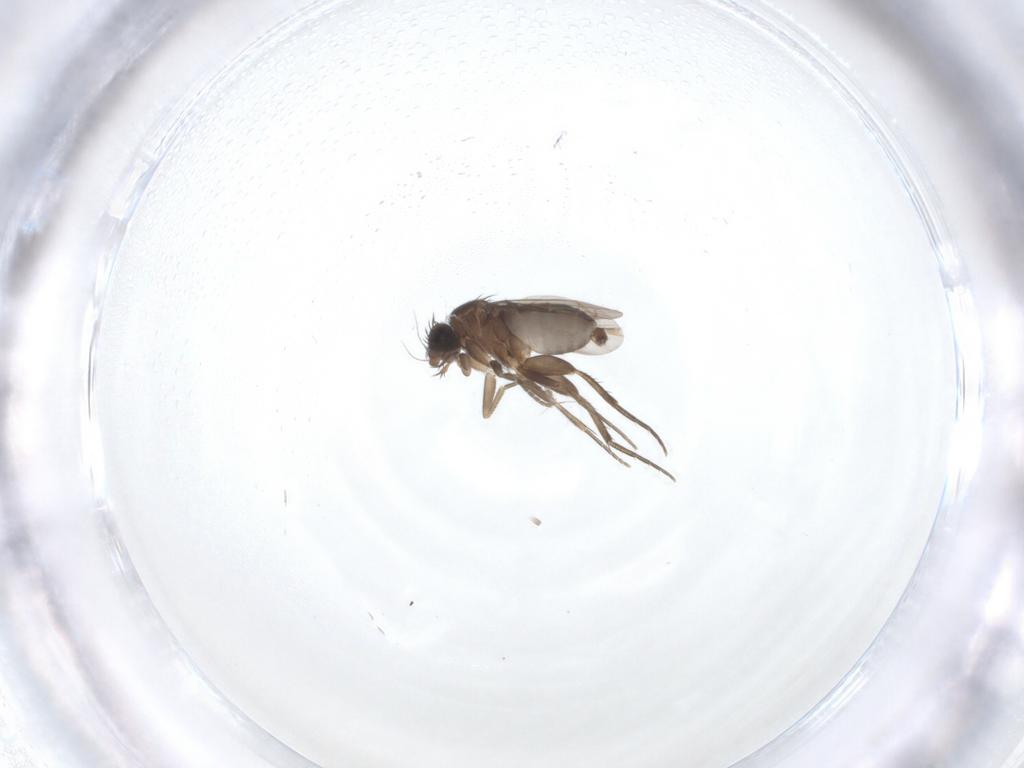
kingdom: Animalia
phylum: Arthropoda
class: Insecta
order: Diptera
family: Phoridae
